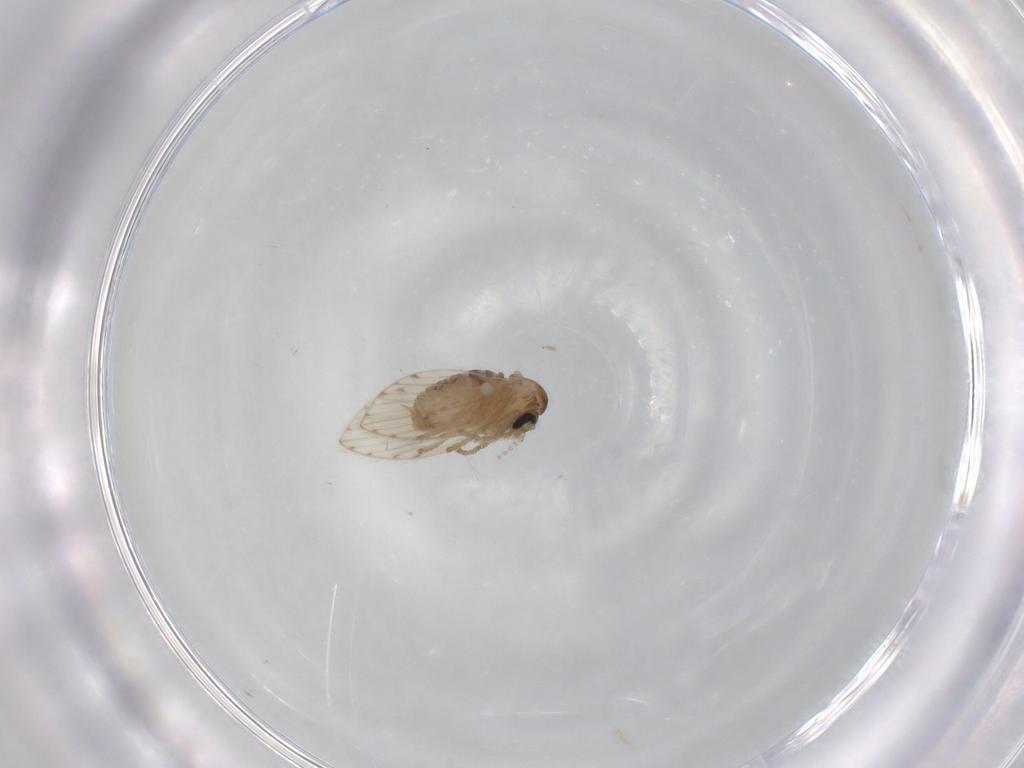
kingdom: Animalia
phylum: Arthropoda
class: Insecta
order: Diptera
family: Psychodidae
